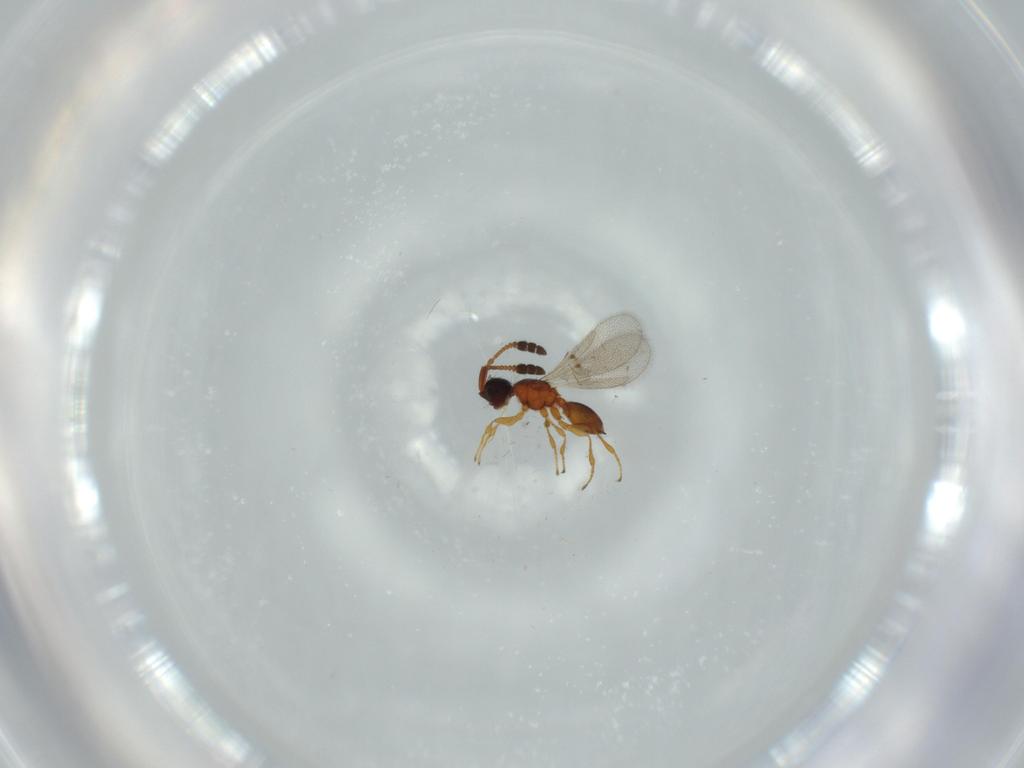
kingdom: Animalia
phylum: Arthropoda
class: Insecta
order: Hymenoptera
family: Diapriidae
